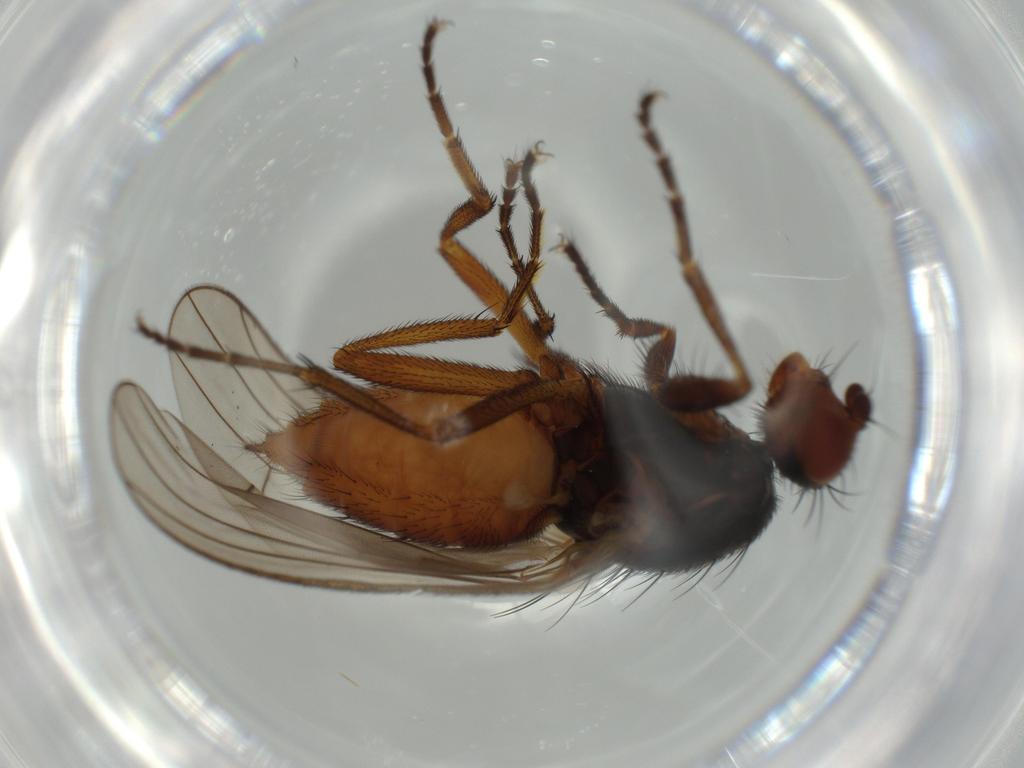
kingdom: Animalia
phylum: Arthropoda
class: Insecta
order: Diptera
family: Heleomyzidae
